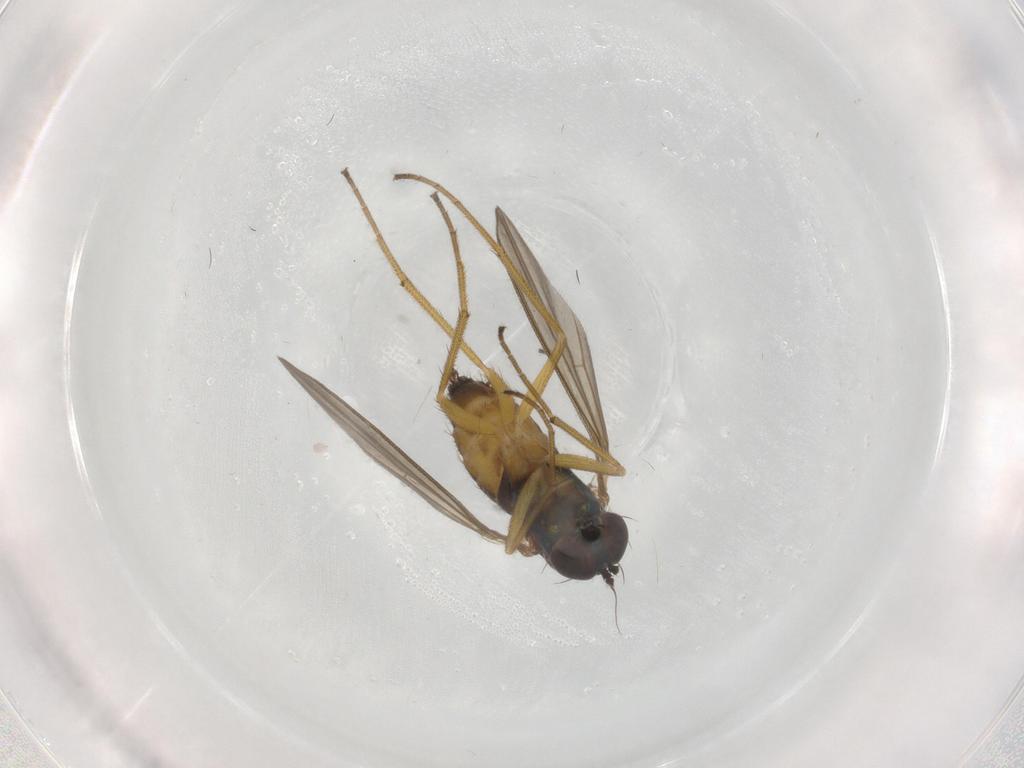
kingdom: Animalia
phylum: Arthropoda
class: Insecta
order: Diptera
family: Dolichopodidae
